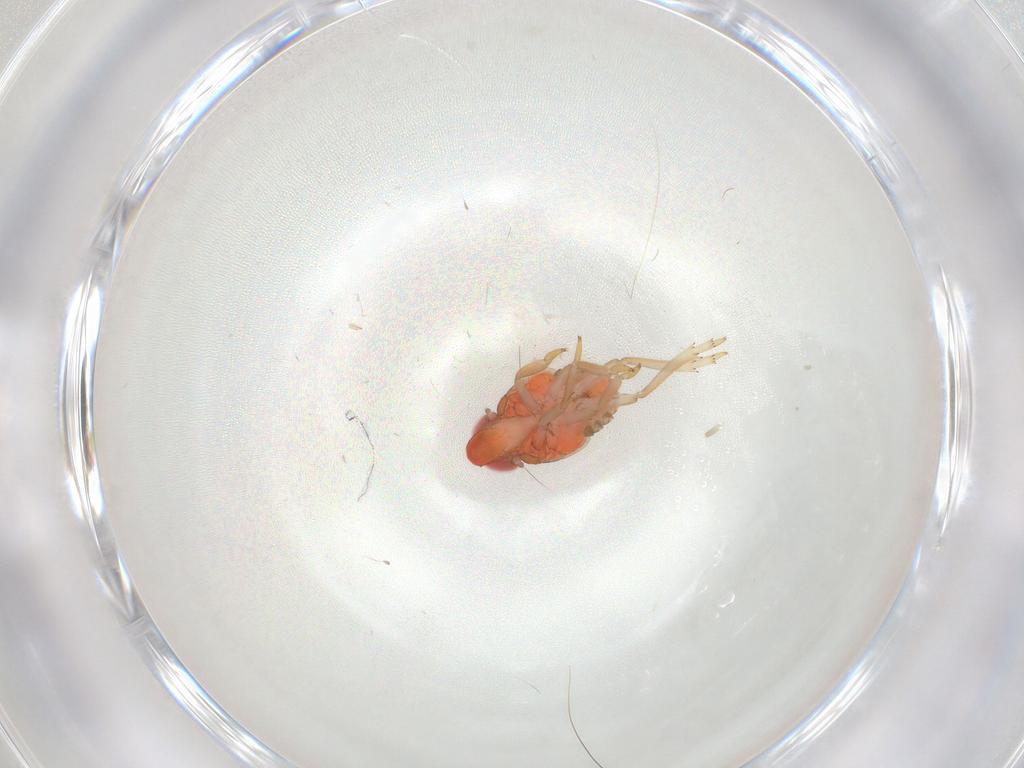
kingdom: Animalia
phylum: Arthropoda
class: Insecta
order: Hemiptera
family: Issidae
